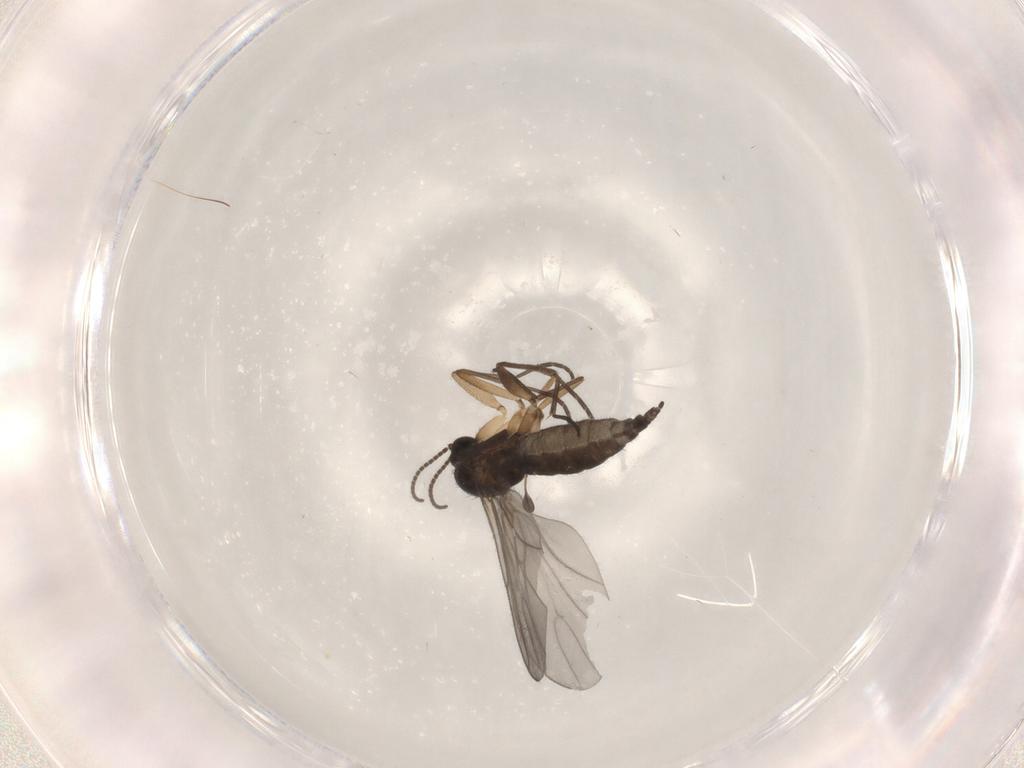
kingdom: Animalia
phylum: Arthropoda
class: Insecta
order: Diptera
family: Sciaridae
